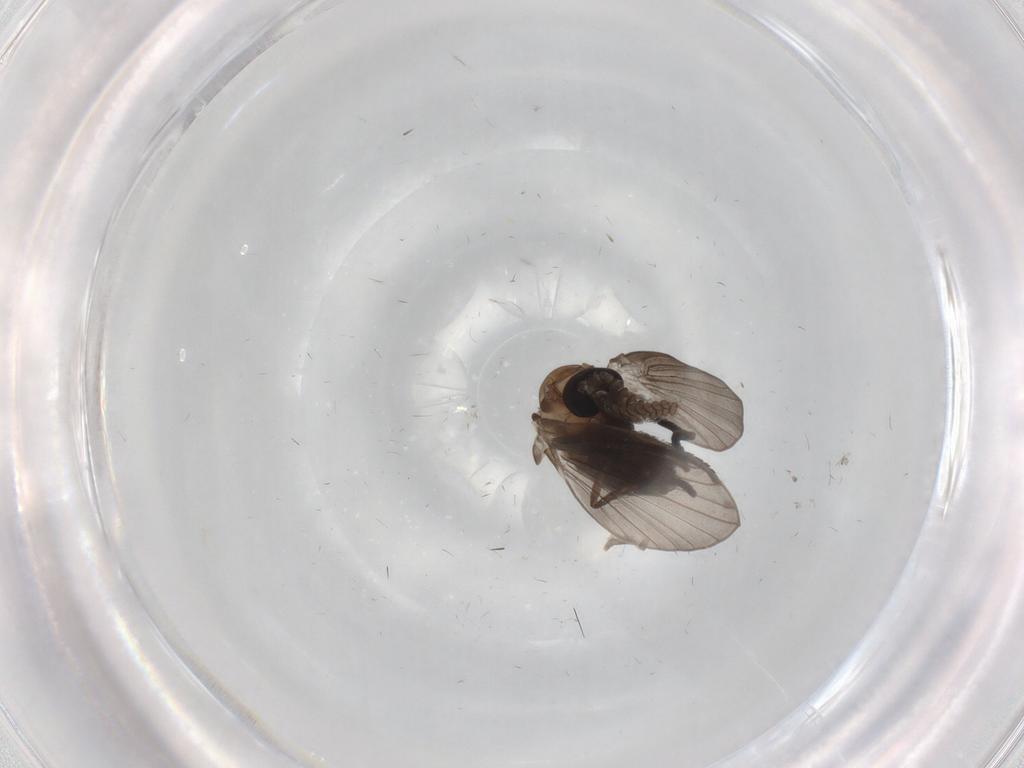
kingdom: Animalia
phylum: Arthropoda
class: Insecta
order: Diptera
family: Psychodidae
